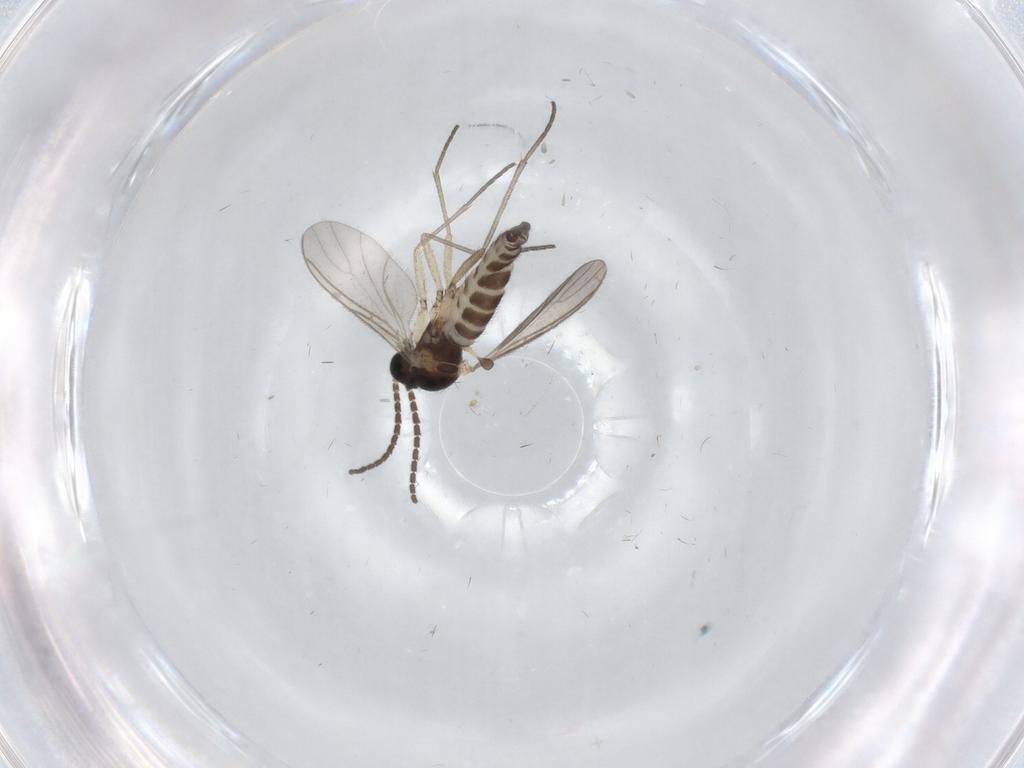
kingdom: Animalia
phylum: Arthropoda
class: Insecta
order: Diptera
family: Sciaridae
